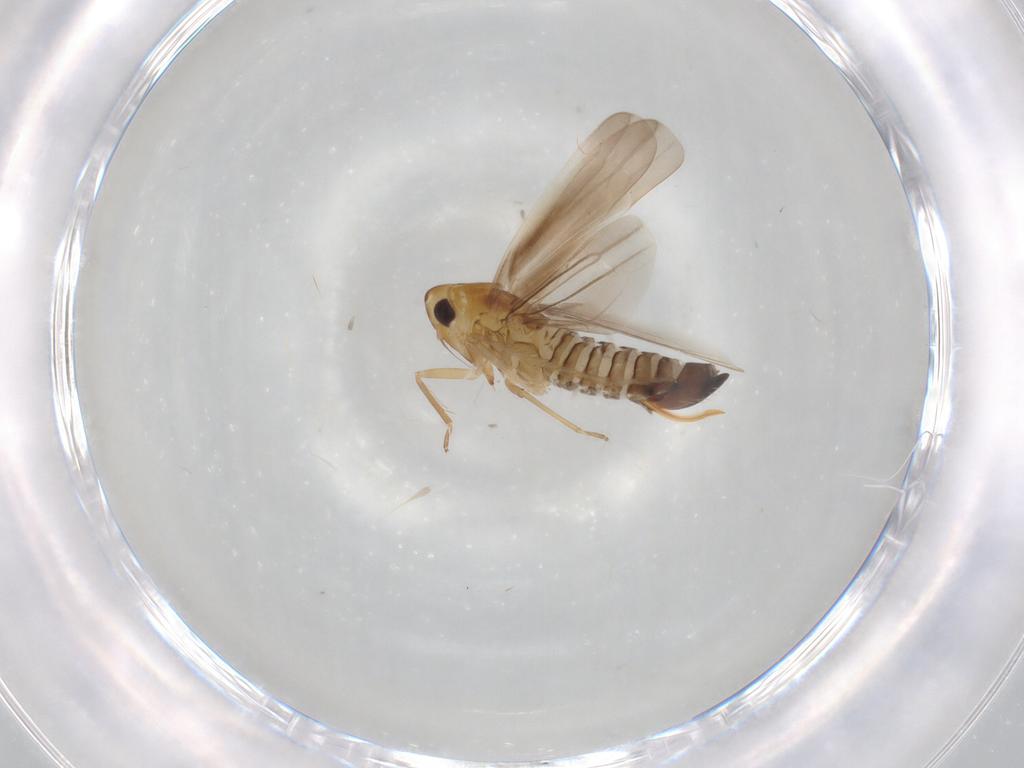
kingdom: Animalia
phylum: Arthropoda
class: Insecta
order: Hemiptera
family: Cicadellidae
